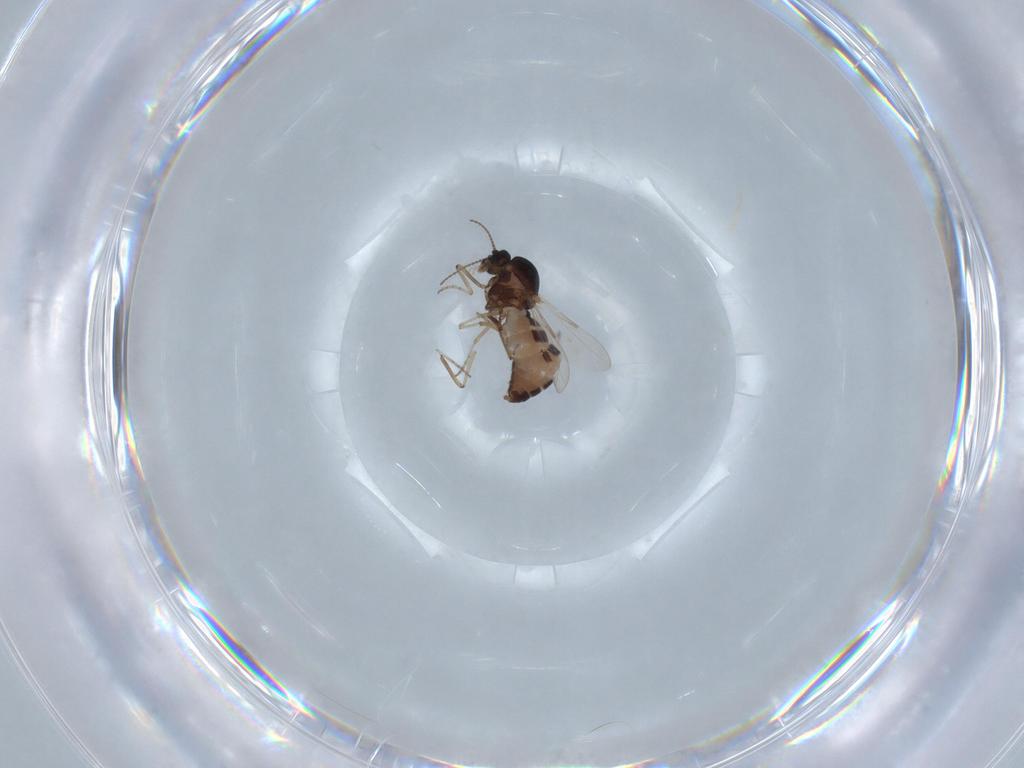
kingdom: Animalia
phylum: Arthropoda
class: Insecta
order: Diptera
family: Ceratopogonidae
